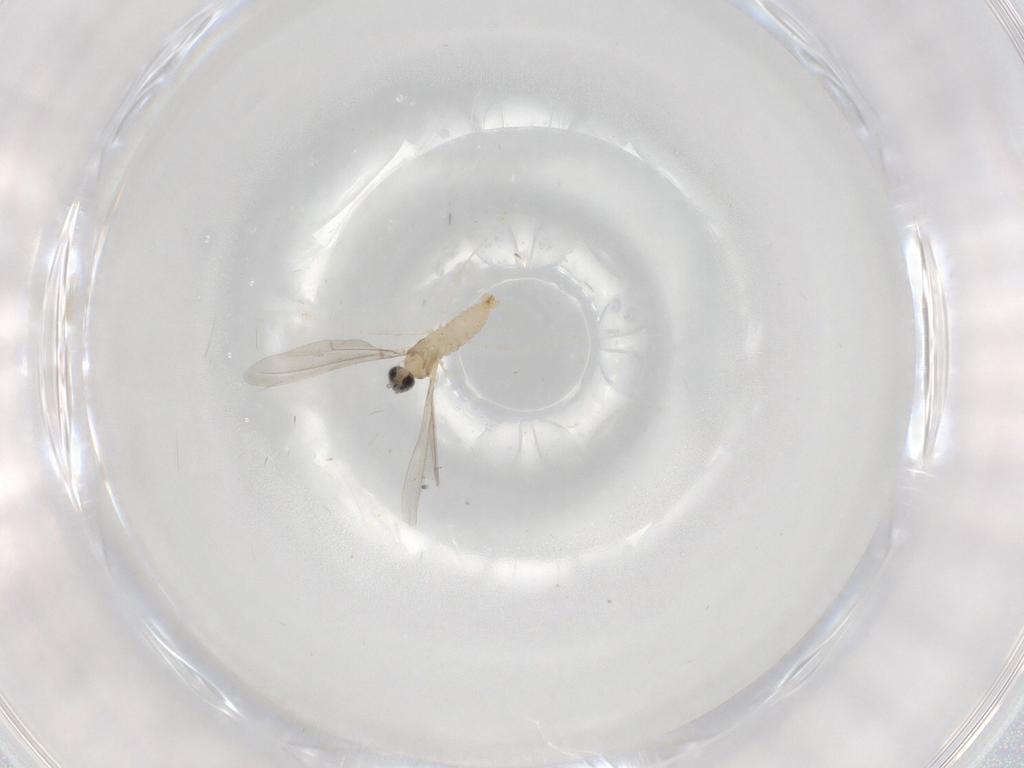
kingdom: Animalia
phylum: Arthropoda
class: Insecta
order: Diptera
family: Cecidomyiidae
